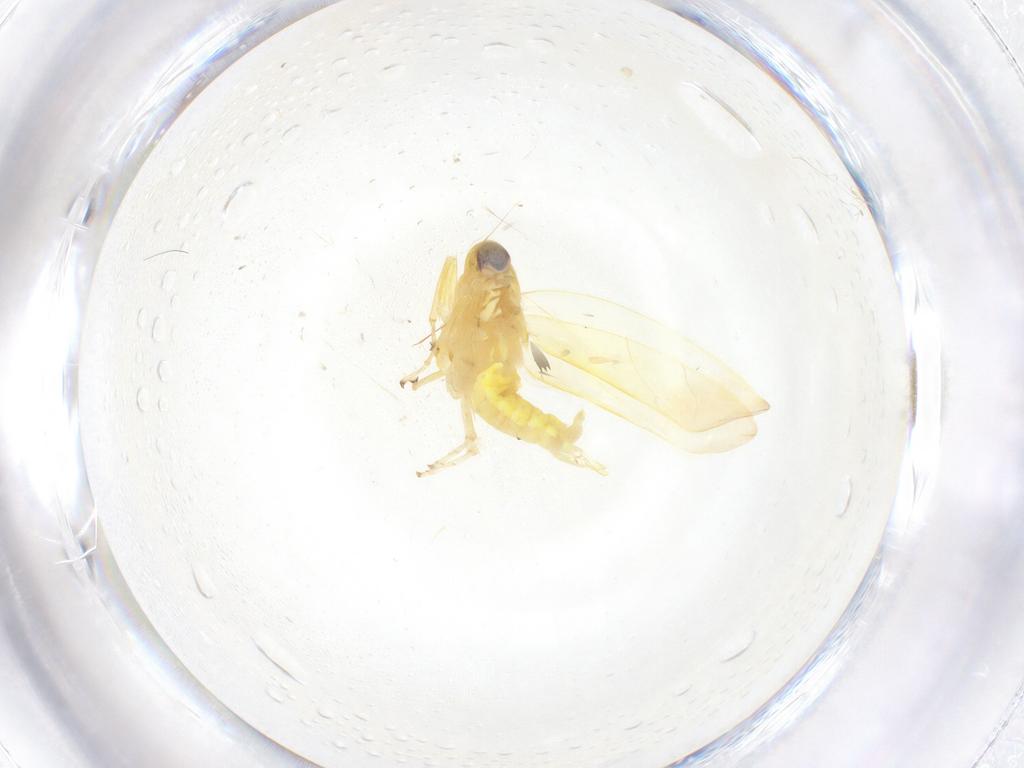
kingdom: Animalia
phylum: Arthropoda
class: Insecta
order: Hemiptera
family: Cicadellidae
